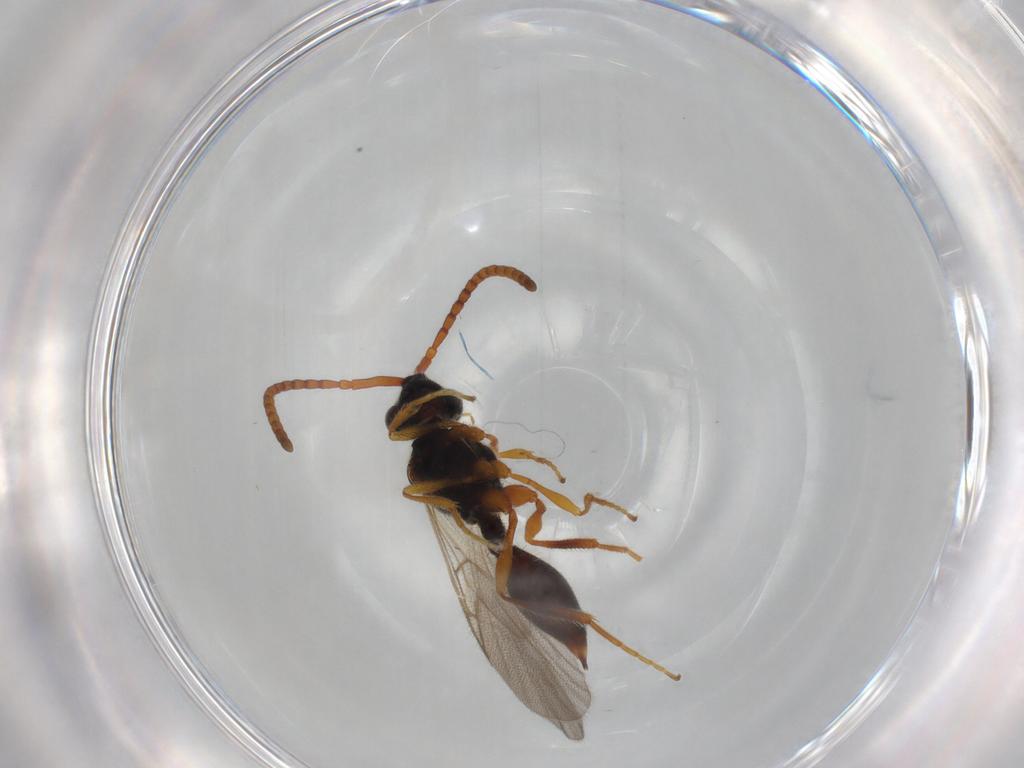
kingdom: Animalia
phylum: Arthropoda
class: Insecta
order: Hymenoptera
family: Diapriidae
